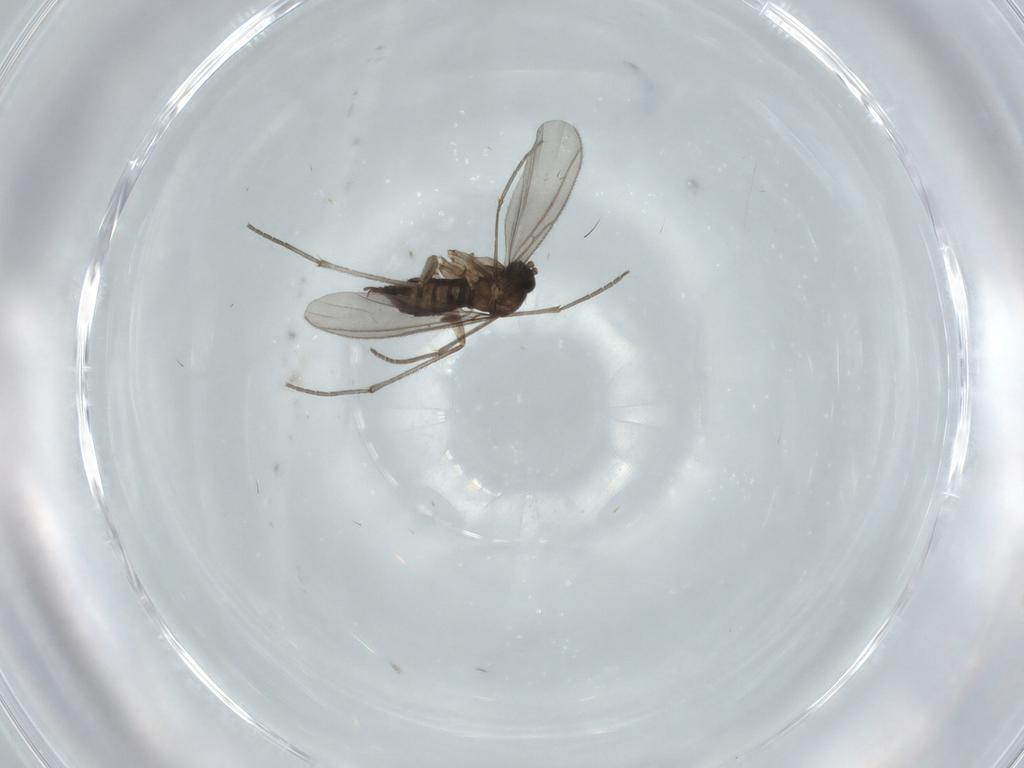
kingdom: Animalia
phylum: Arthropoda
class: Insecta
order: Diptera
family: Sciaridae
